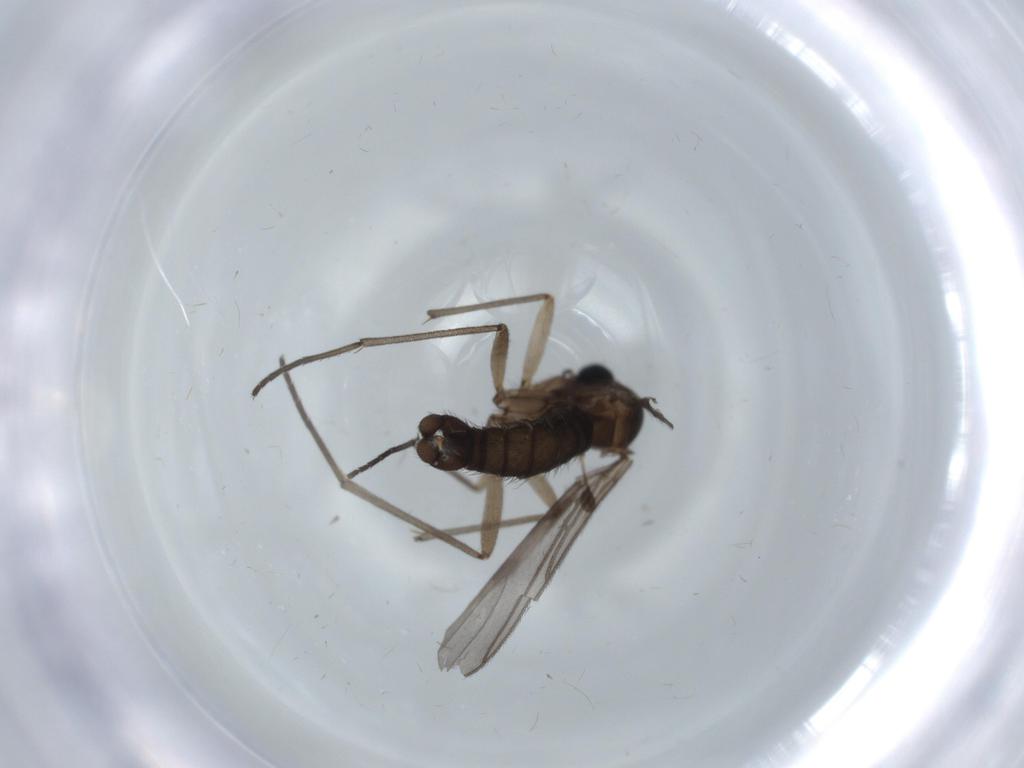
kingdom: Animalia
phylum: Arthropoda
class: Insecta
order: Diptera
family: Sciaridae
